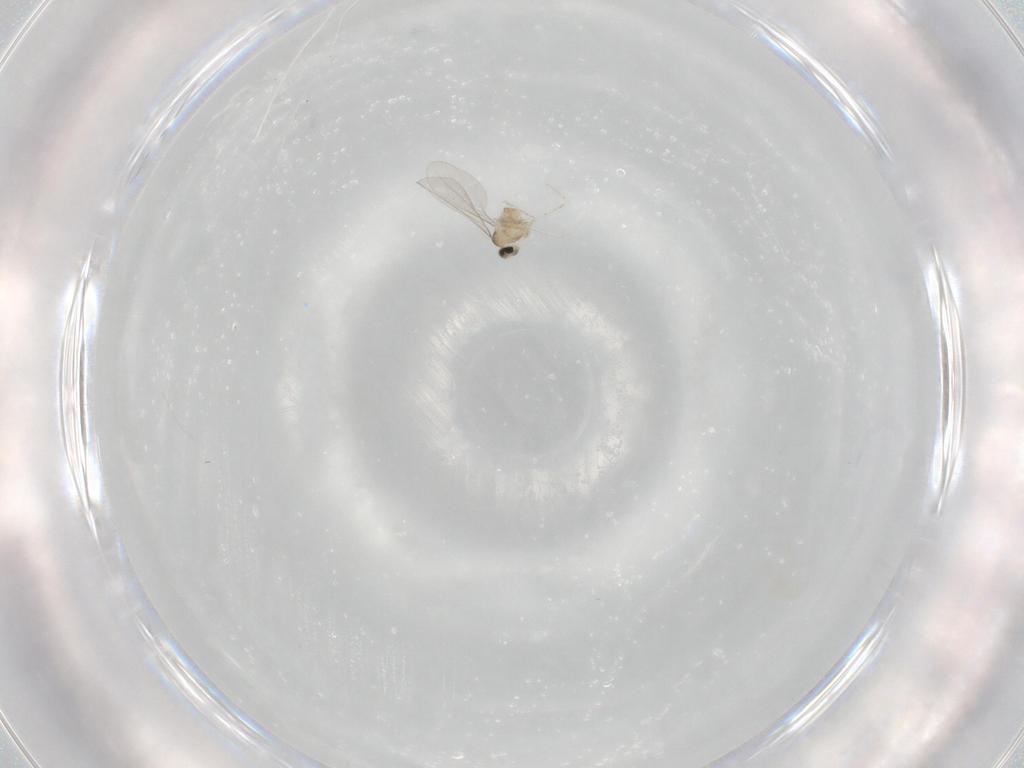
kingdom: Animalia
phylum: Arthropoda
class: Insecta
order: Diptera
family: Cecidomyiidae
